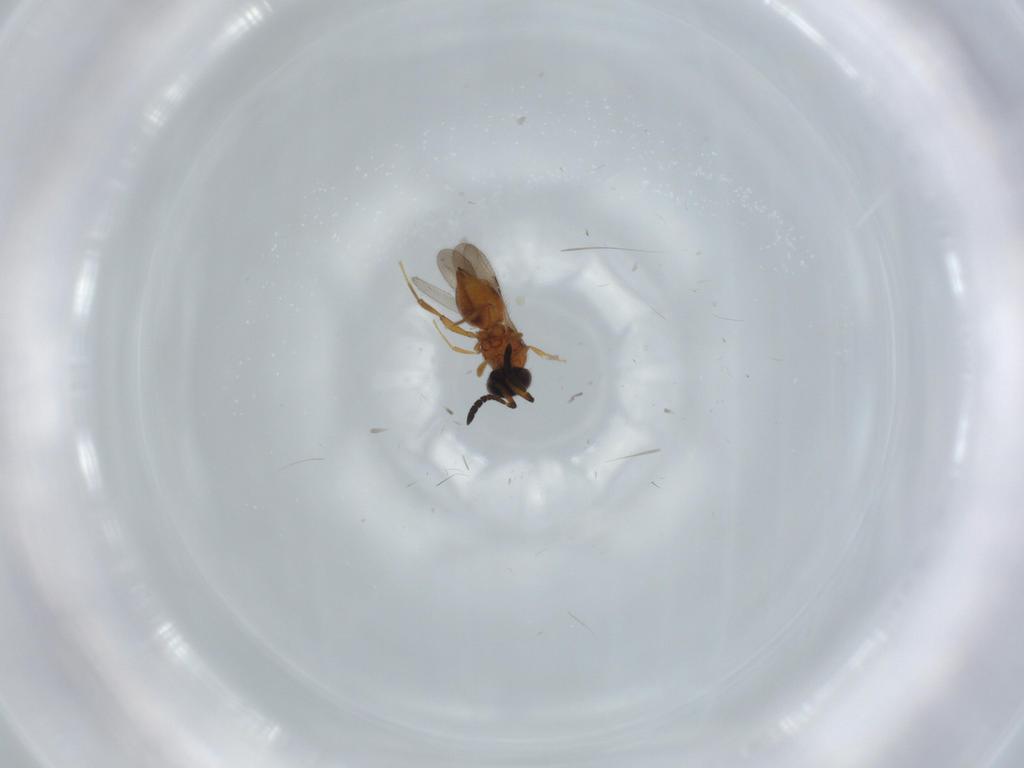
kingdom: Animalia
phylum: Arthropoda
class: Insecta
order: Hymenoptera
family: Ceraphronidae
